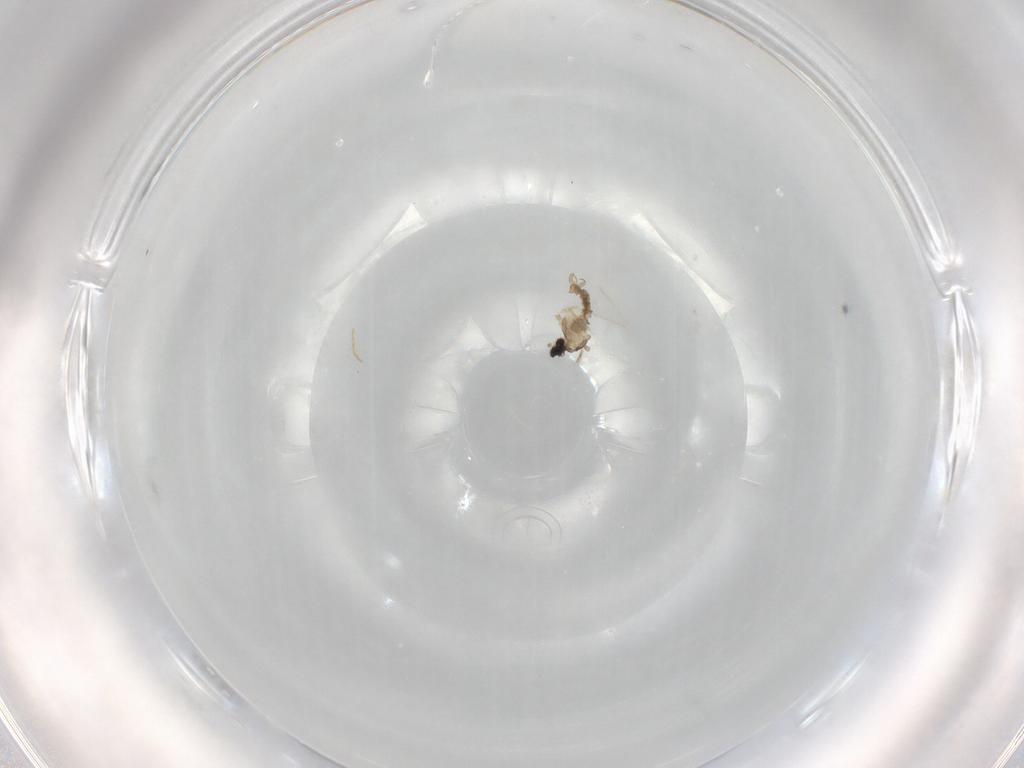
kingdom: Animalia
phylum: Arthropoda
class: Insecta
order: Diptera
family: Cecidomyiidae
